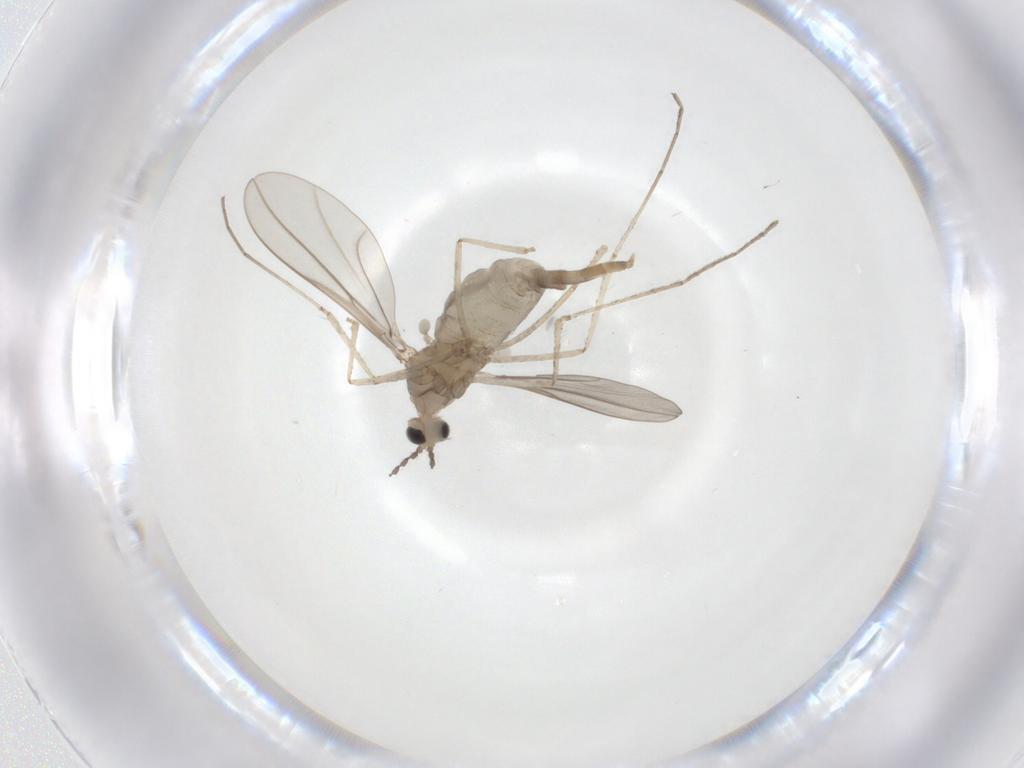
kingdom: Animalia
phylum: Arthropoda
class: Insecta
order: Diptera
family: Cecidomyiidae
